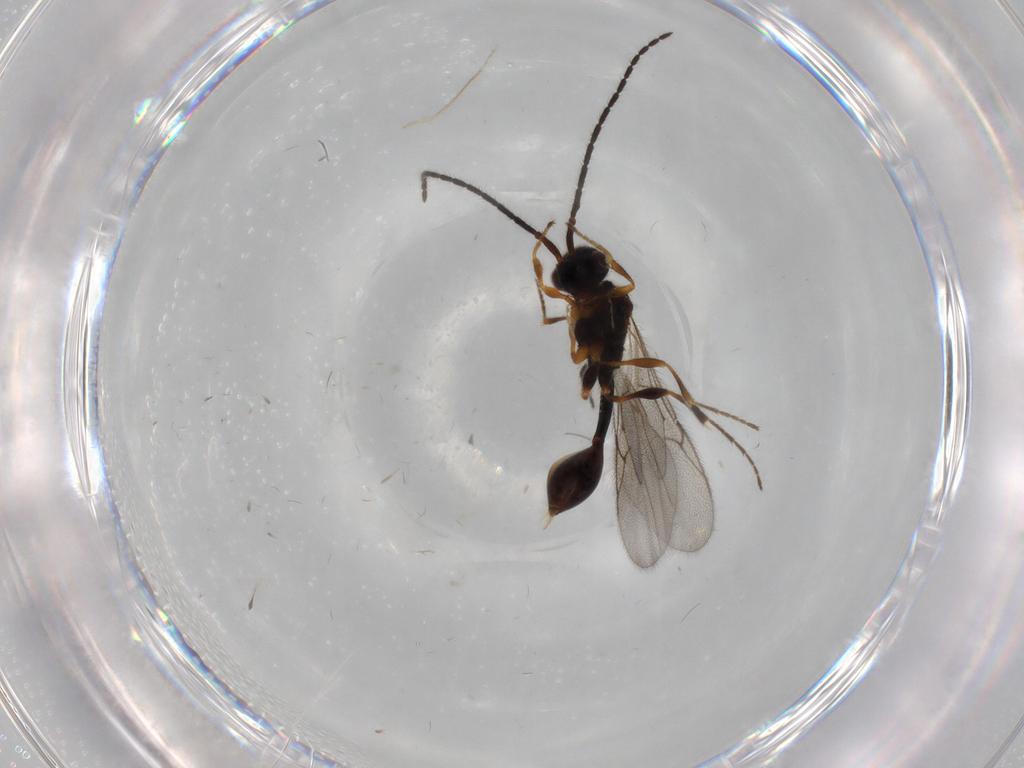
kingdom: Animalia
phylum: Arthropoda
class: Insecta
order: Hymenoptera
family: Diapriidae
